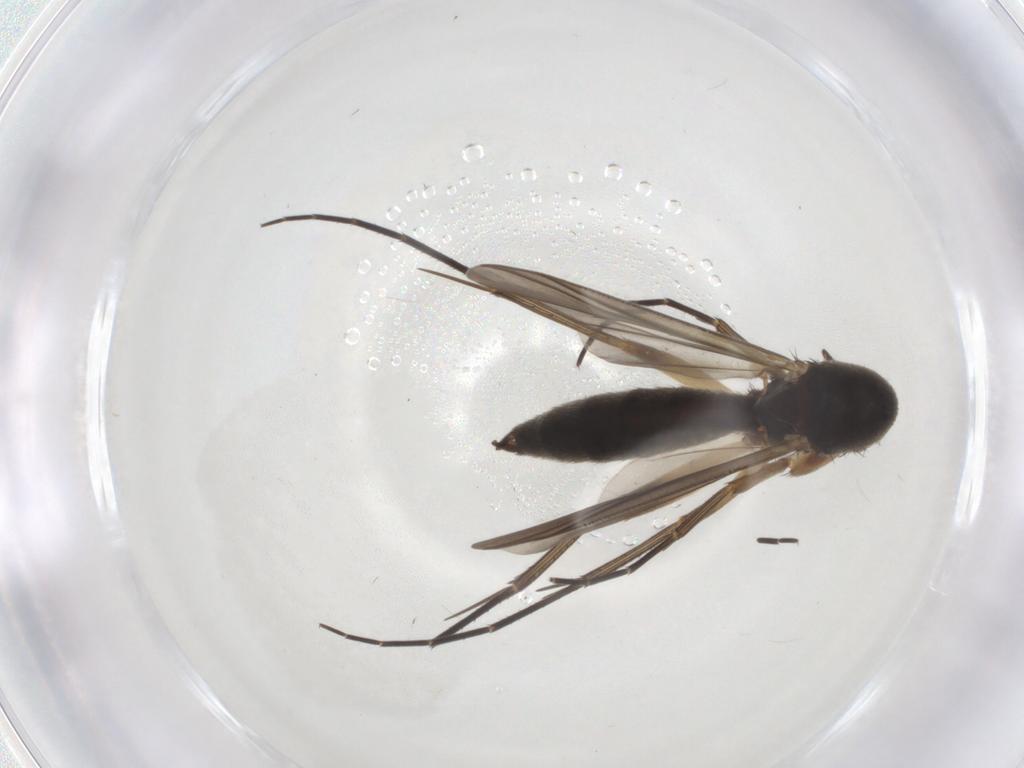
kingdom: Animalia
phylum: Arthropoda
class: Insecta
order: Diptera
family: Mycetophilidae
